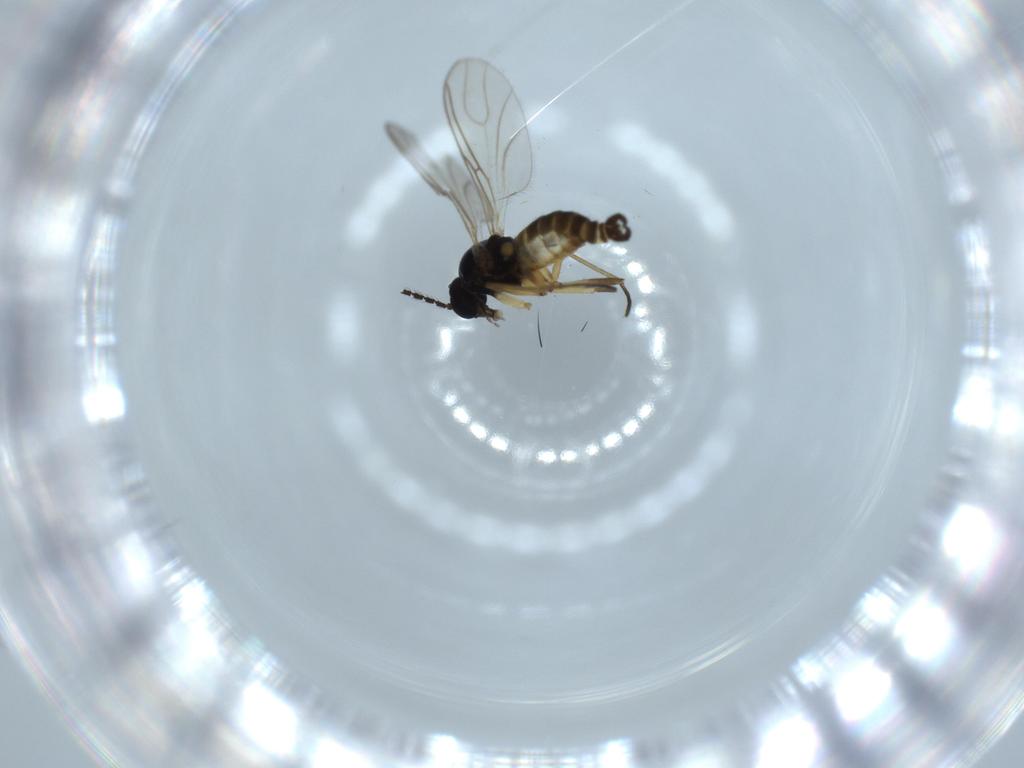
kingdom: Animalia
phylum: Arthropoda
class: Insecta
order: Diptera
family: Sciaridae
